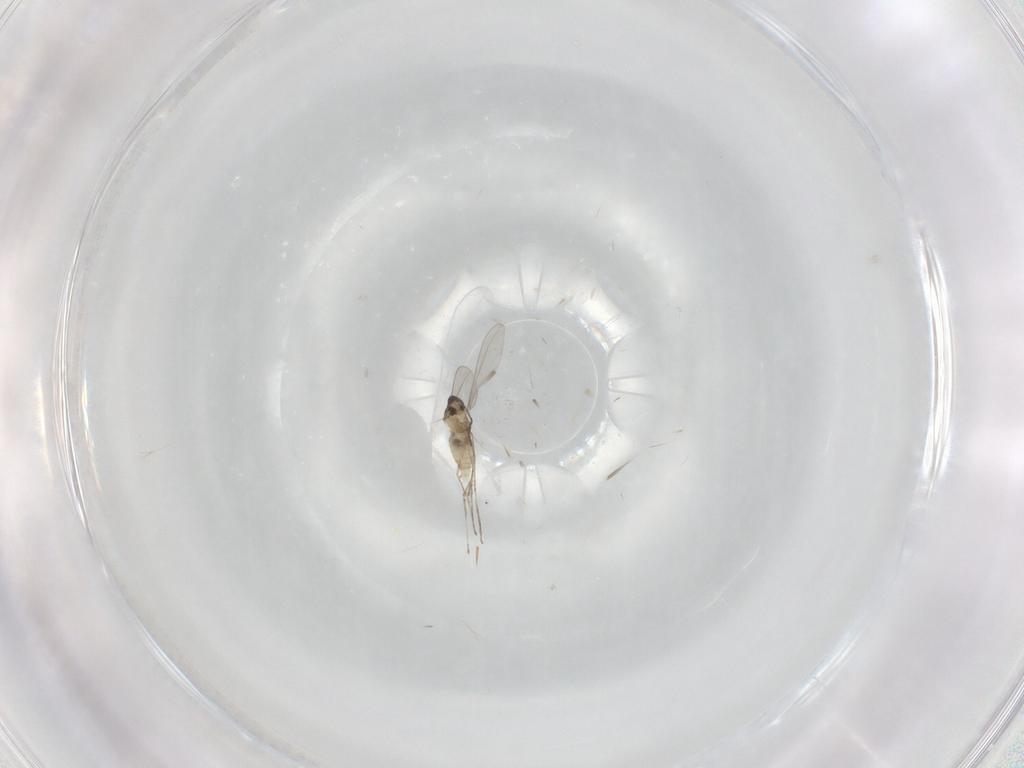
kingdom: Animalia
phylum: Arthropoda
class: Insecta
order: Diptera
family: Cecidomyiidae
